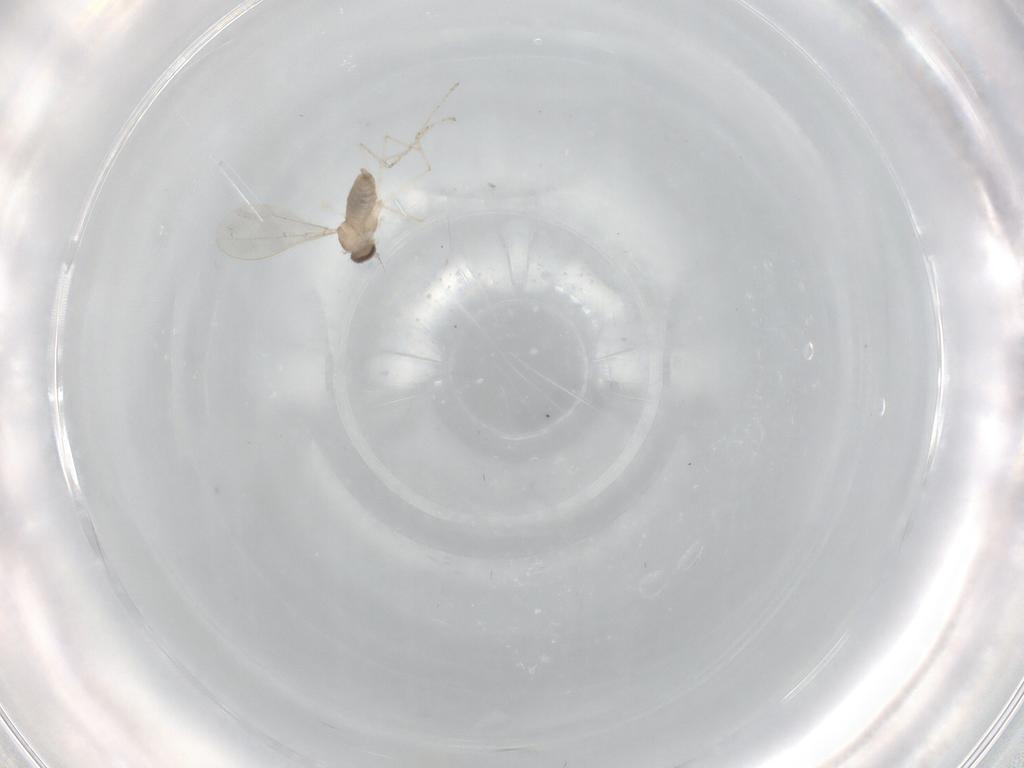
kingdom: Animalia
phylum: Arthropoda
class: Insecta
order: Diptera
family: Cecidomyiidae
